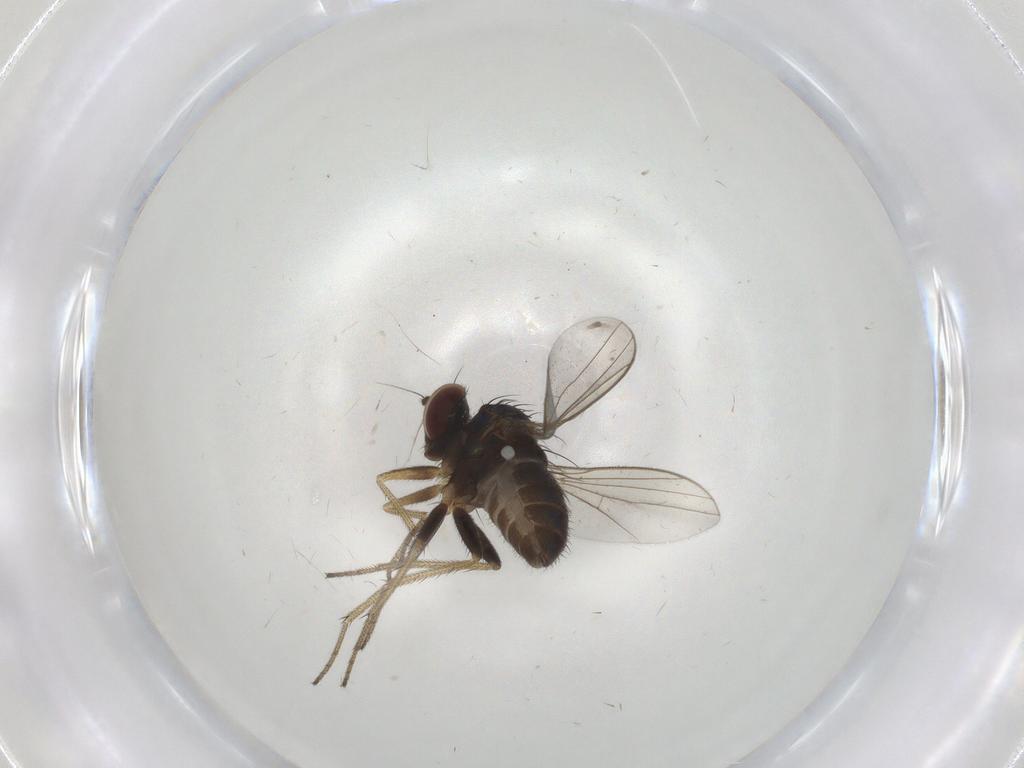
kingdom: Animalia
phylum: Arthropoda
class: Insecta
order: Diptera
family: Dolichopodidae
